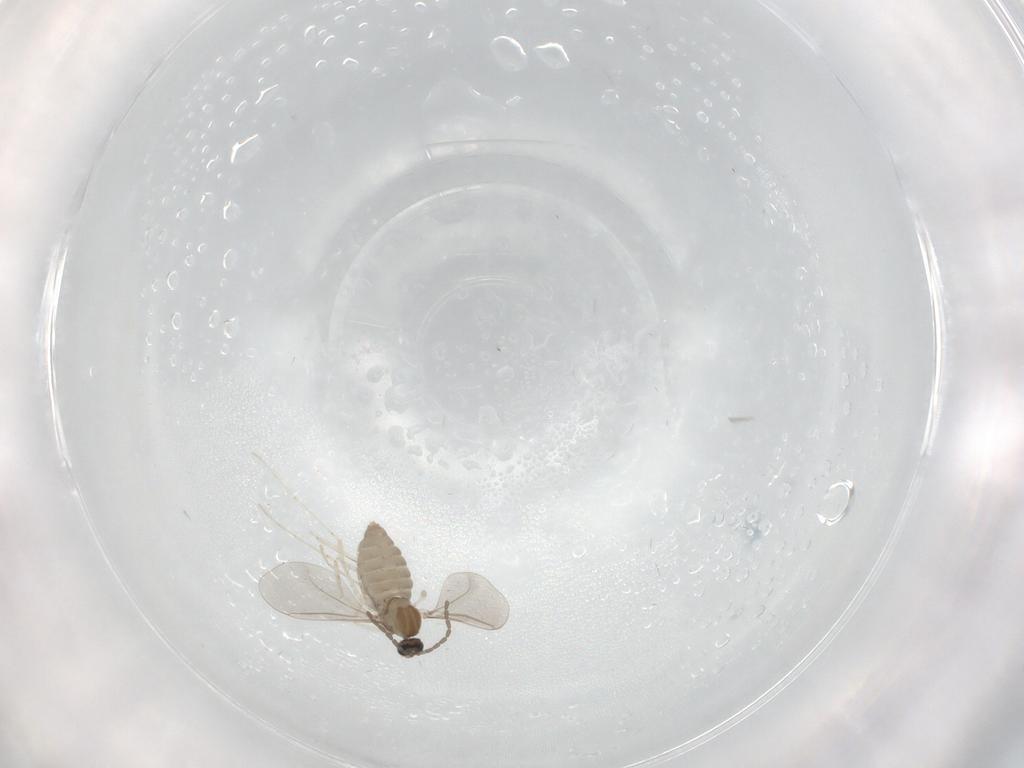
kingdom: Animalia
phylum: Arthropoda
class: Insecta
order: Diptera
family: Cecidomyiidae
